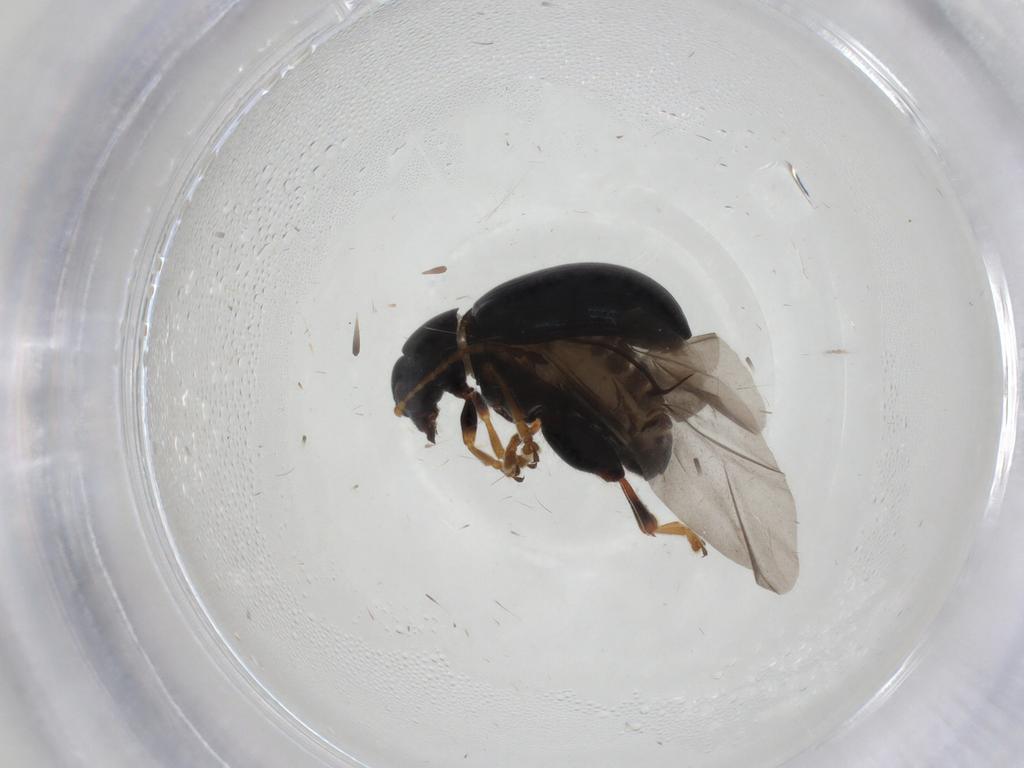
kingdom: Animalia
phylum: Arthropoda
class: Insecta
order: Coleoptera
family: Chrysomelidae
